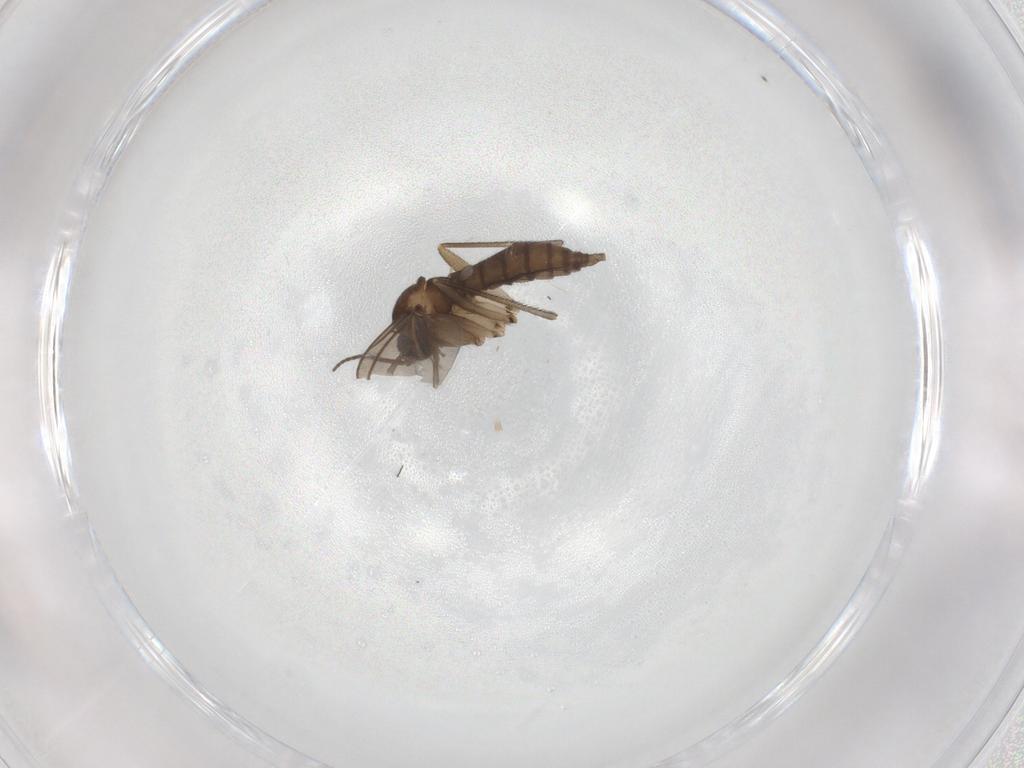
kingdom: Animalia
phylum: Arthropoda
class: Insecta
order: Diptera
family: Sciaridae
